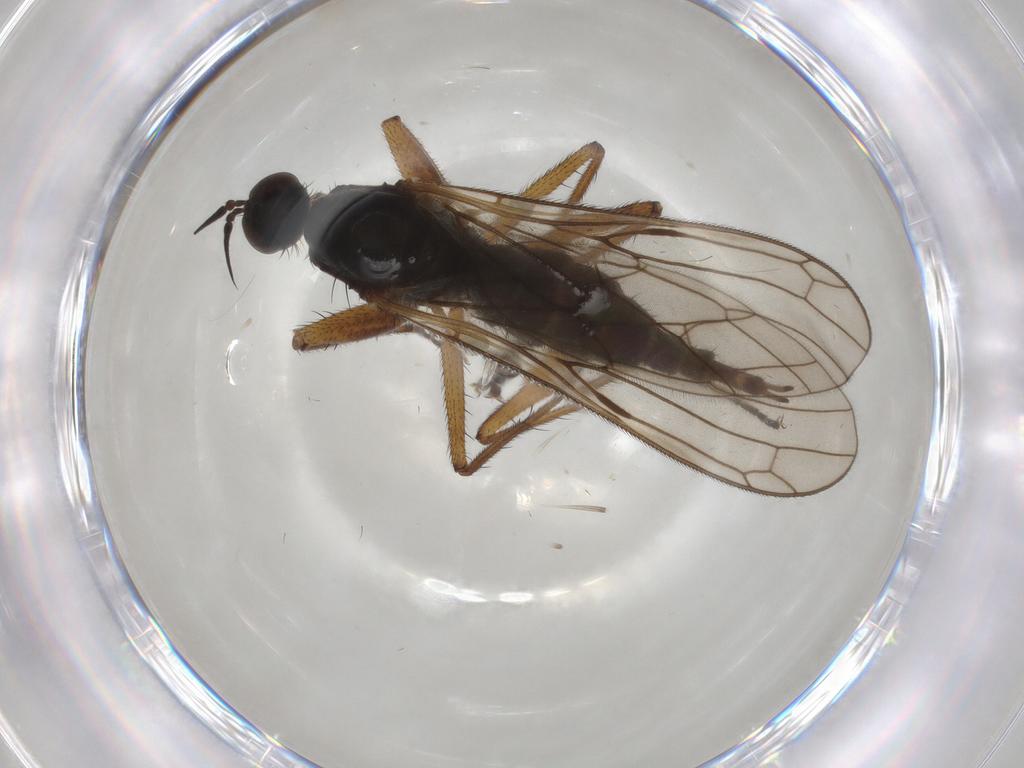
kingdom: Animalia
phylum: Arthropoda
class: Insecta
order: Diptera
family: Empididae
